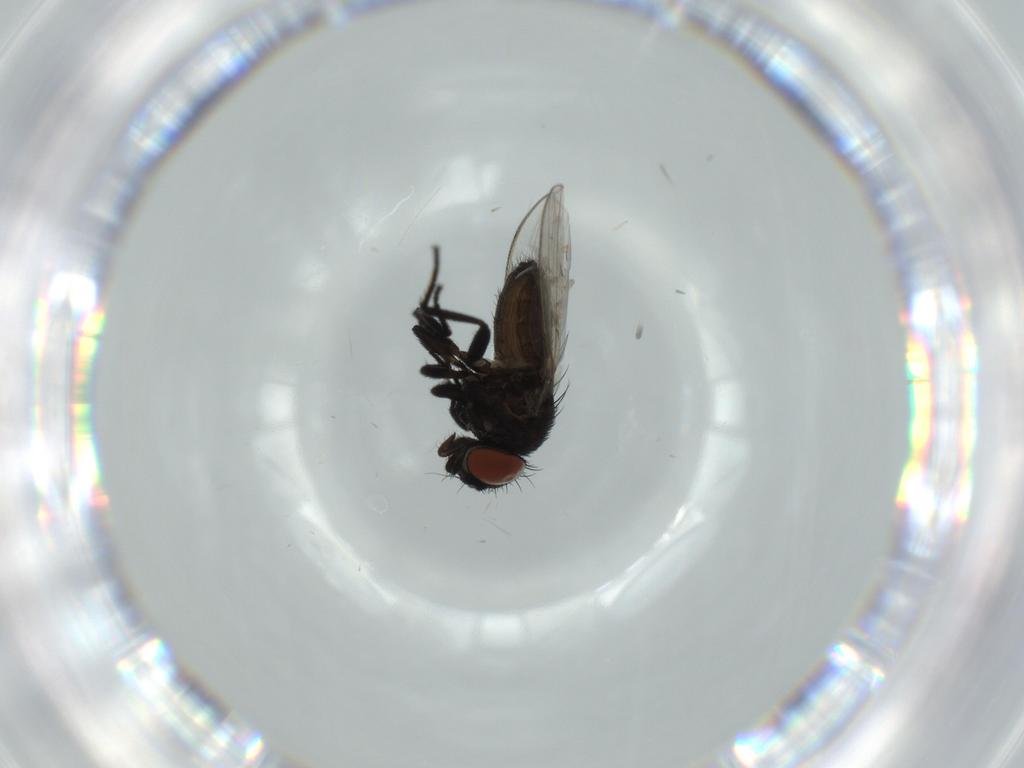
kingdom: Animalia
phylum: Arthropoda
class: Insecta
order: Diptera
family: Milichiidae
